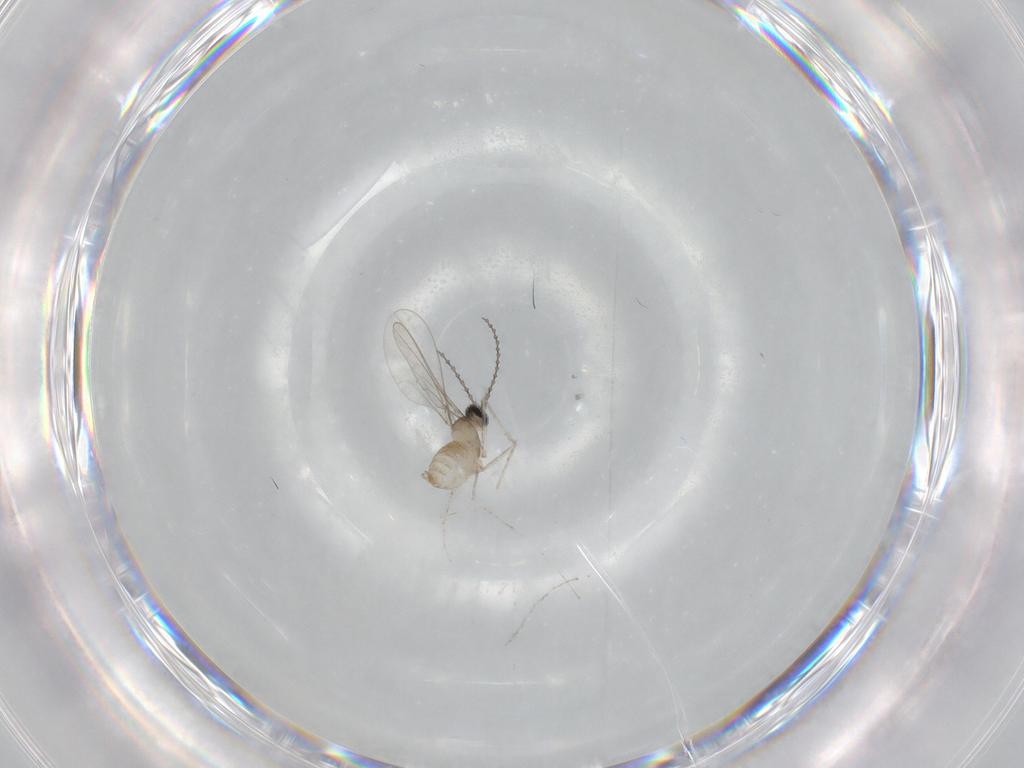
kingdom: Animalia
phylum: Arthropoda
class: Insecta
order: Diptera
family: Cecidomyiidae
